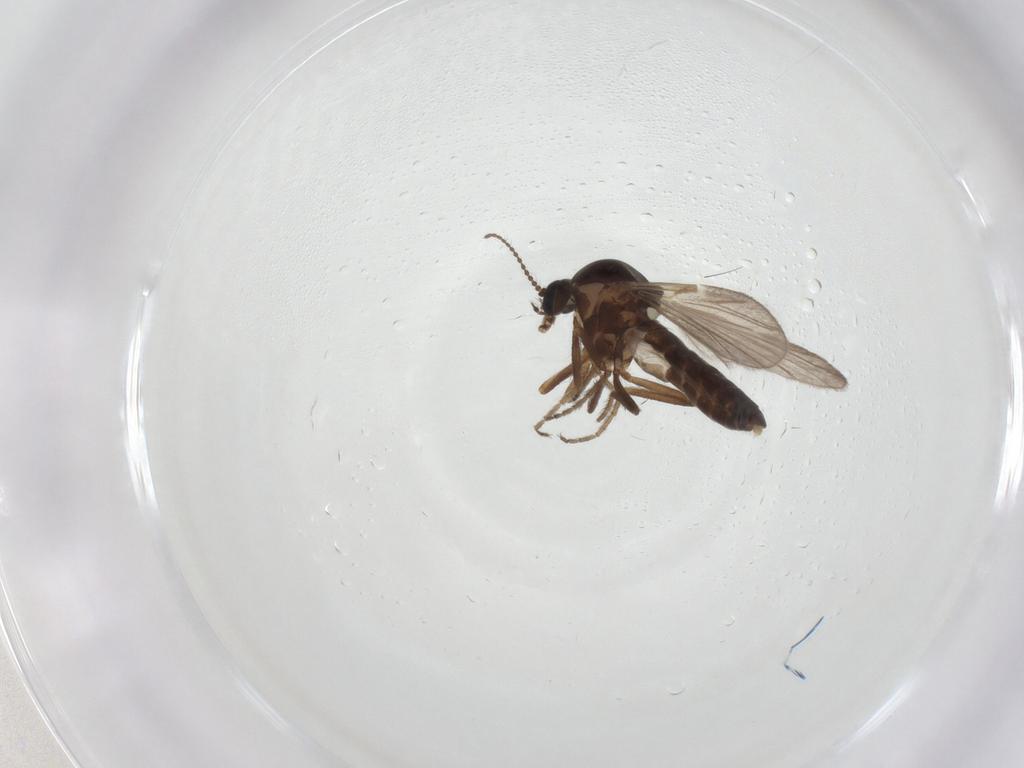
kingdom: Animalia
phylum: Arthropoda
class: Insecta
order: Diptera
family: Ceratopogonidae
